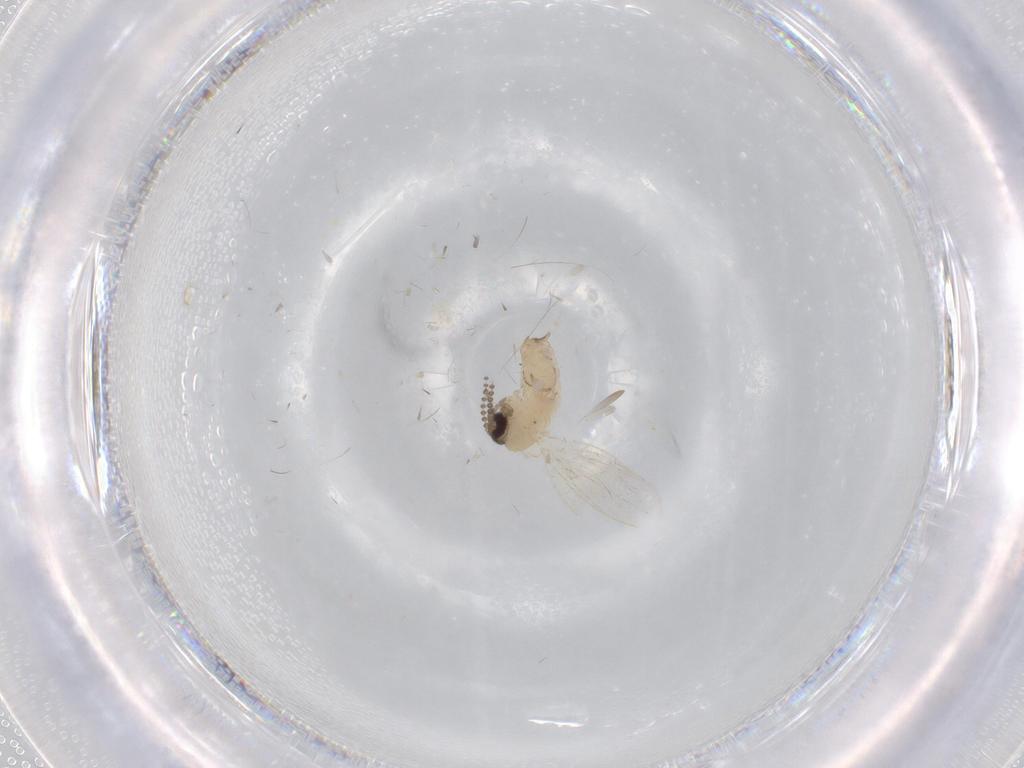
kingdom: Animalia
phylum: Arthropoda
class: Insecta
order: Diptera
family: Psychodidae
